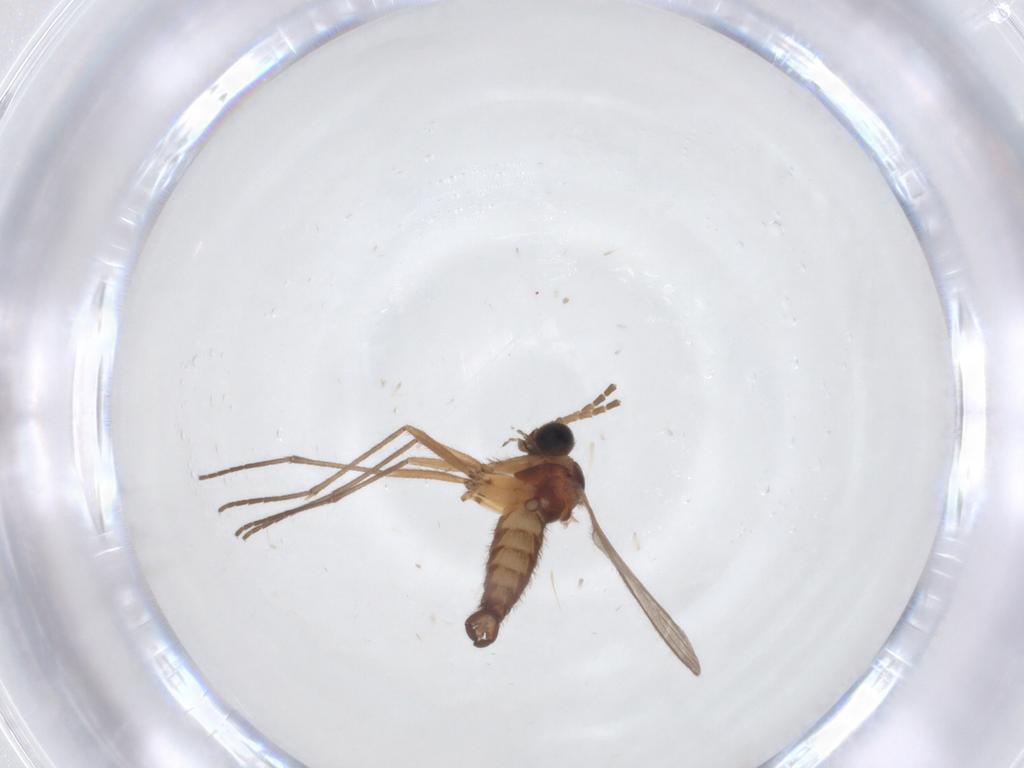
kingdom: Animalia
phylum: Arthropoda
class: Insecta
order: Diptera
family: Sciaridae
